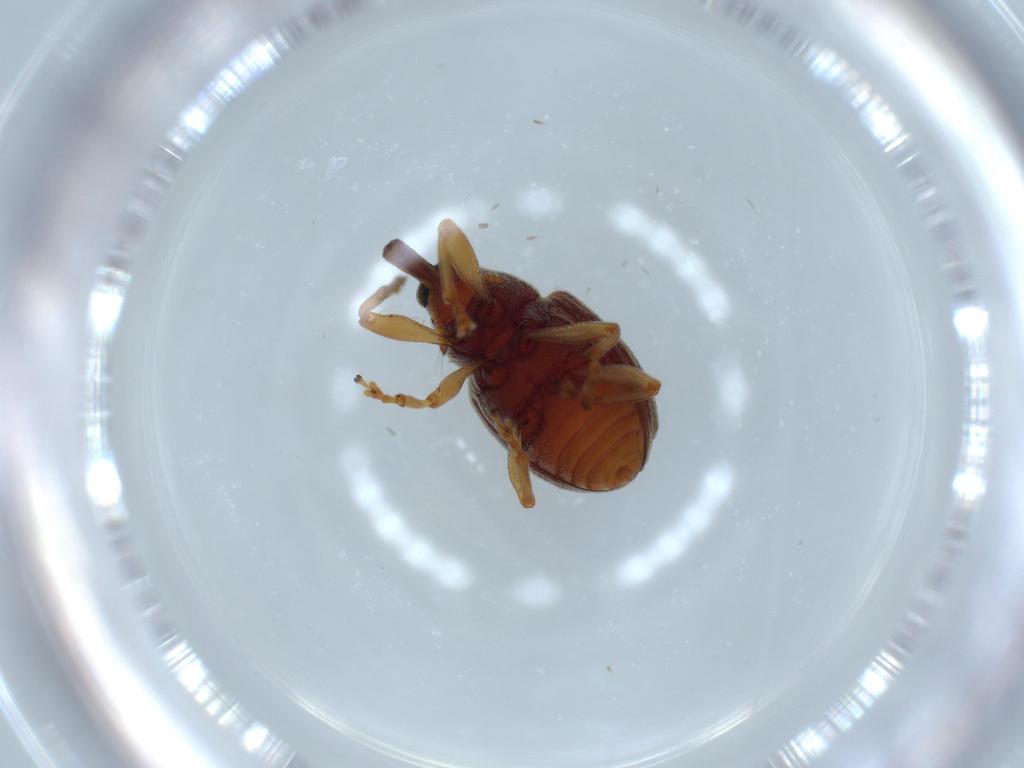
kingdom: Animalia
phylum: Arthropoda
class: Insecta
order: Coleoptera
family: Curculionidae
